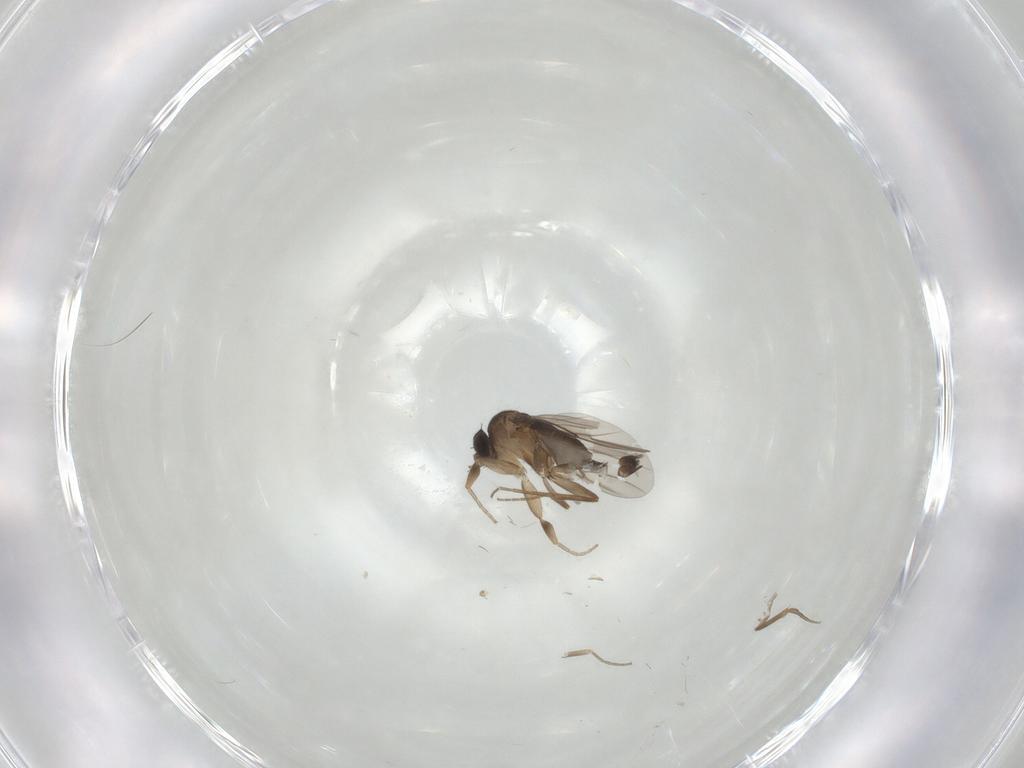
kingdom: Animalia
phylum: Arthropoda
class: Insecta
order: Diptera
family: Phoridae
